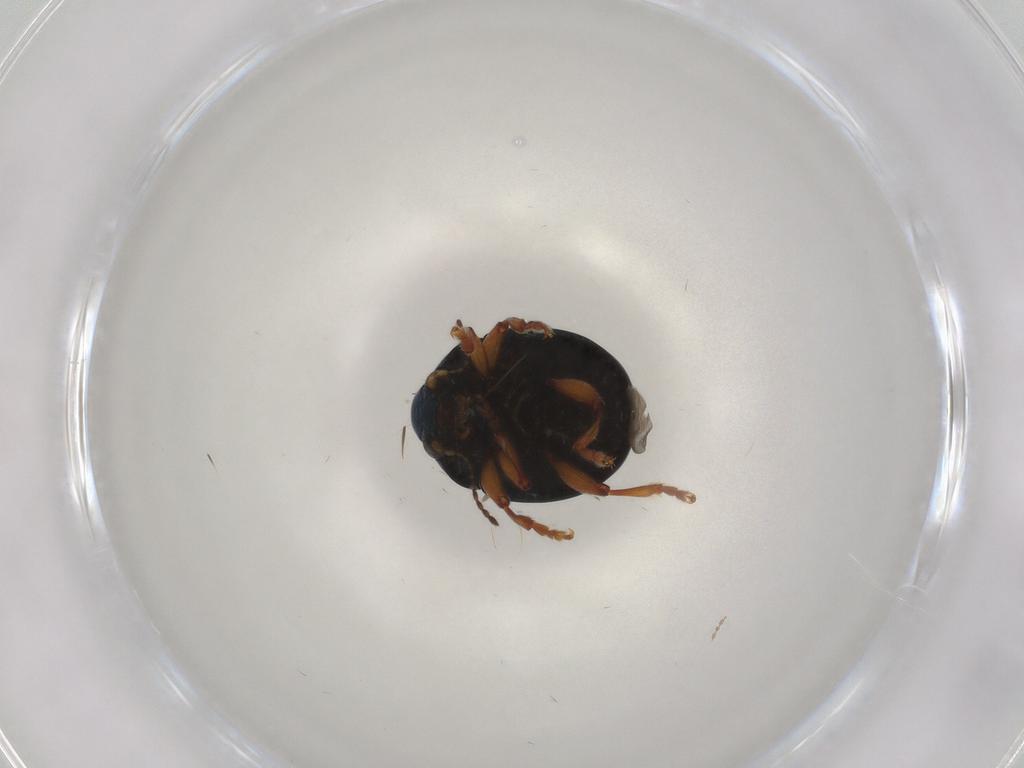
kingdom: Animalia
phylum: Arthropoda
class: Insecta
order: Coleoptera
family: Chrysomelidae
